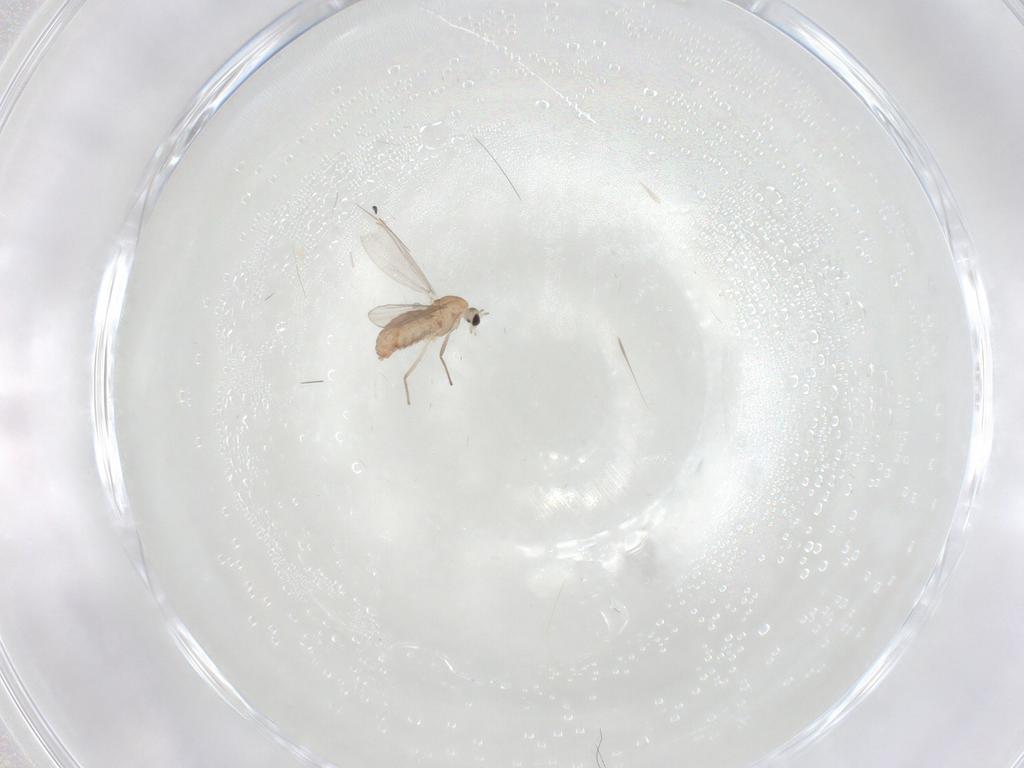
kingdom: Animalia
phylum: Arthropoda
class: Insecta
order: Diptera
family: Chironomidae
